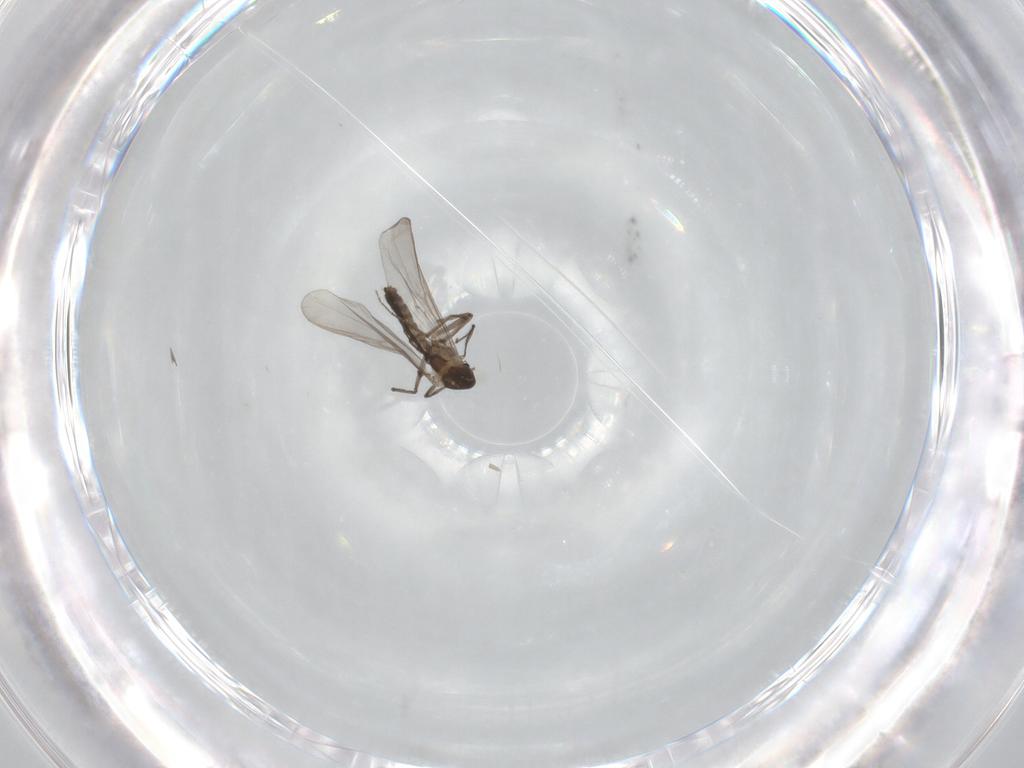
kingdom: Animalia
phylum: Arthropoda
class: Insecta
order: Diptera
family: Chironomidae
